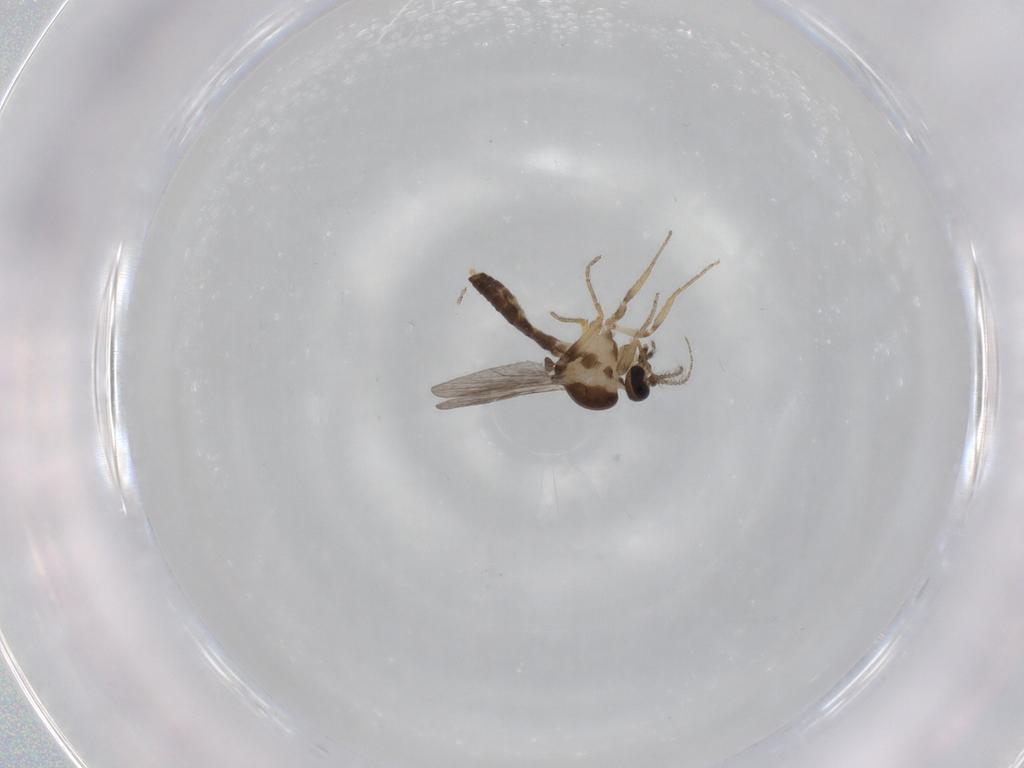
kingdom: Animalia
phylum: Arthropoda
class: Insecta
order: Diptera
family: Ceratopogonidae
